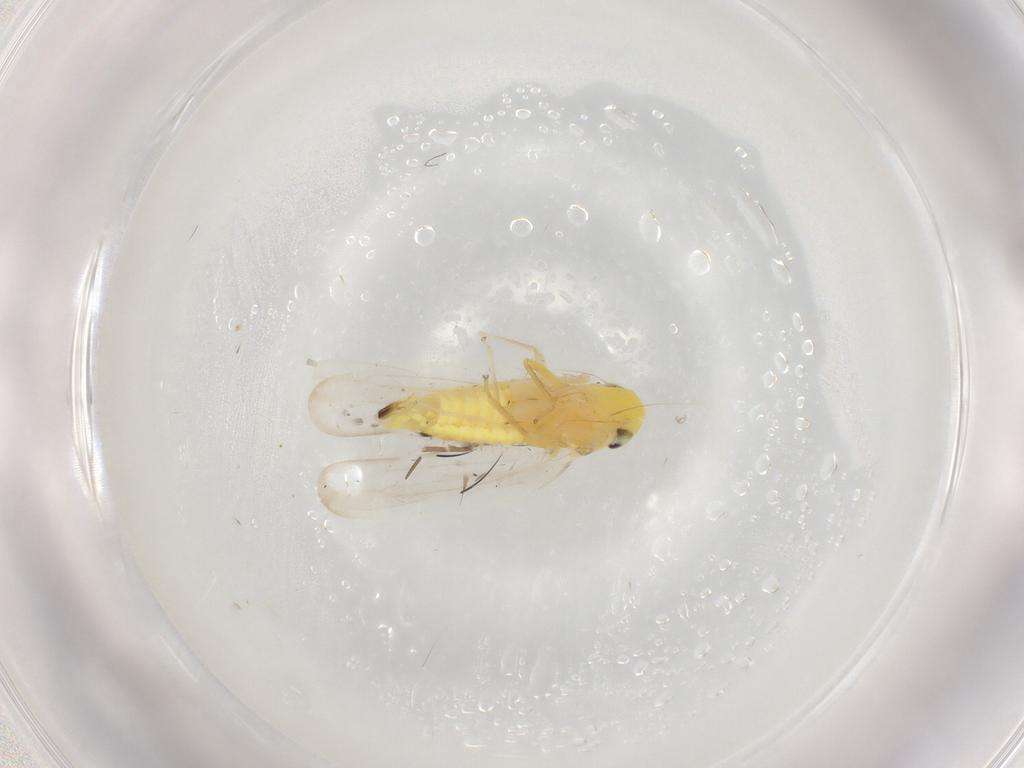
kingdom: Animalia
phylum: Arthropoda
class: Insecta
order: Hemiptera
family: Cicadellidae
